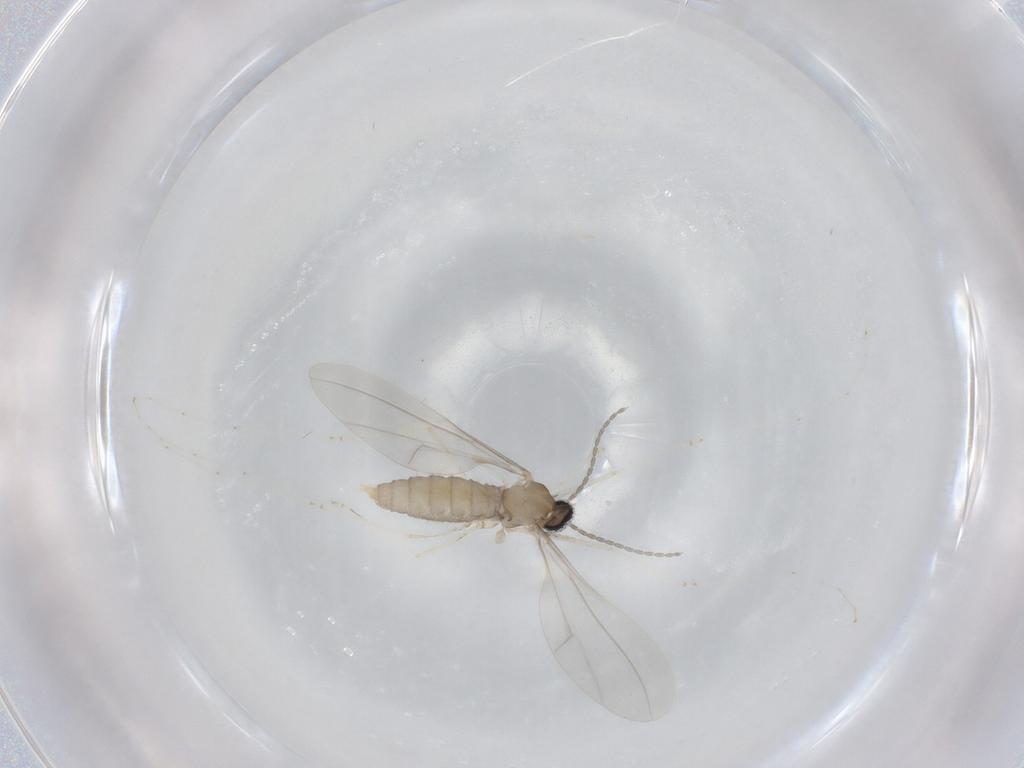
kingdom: Animalia
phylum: Arthropoda
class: Insecta
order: Diptera
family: Cecidomyiidae
